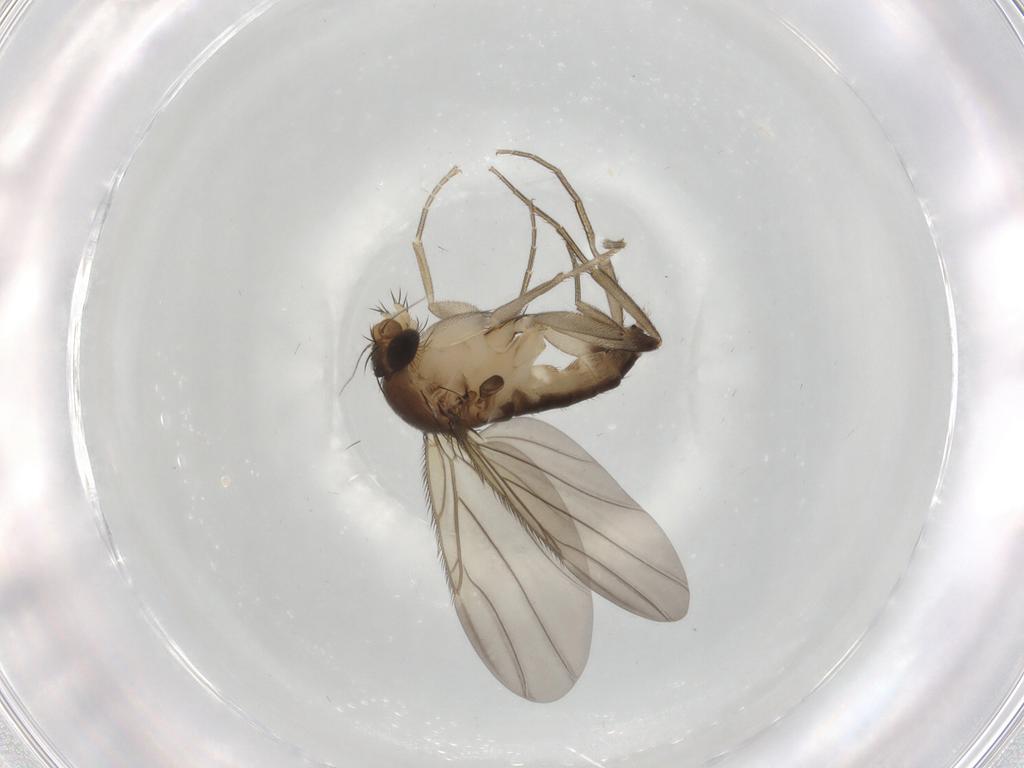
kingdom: Animalia
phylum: Arthropoda
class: Insecta
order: Diptera
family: Phoridae
